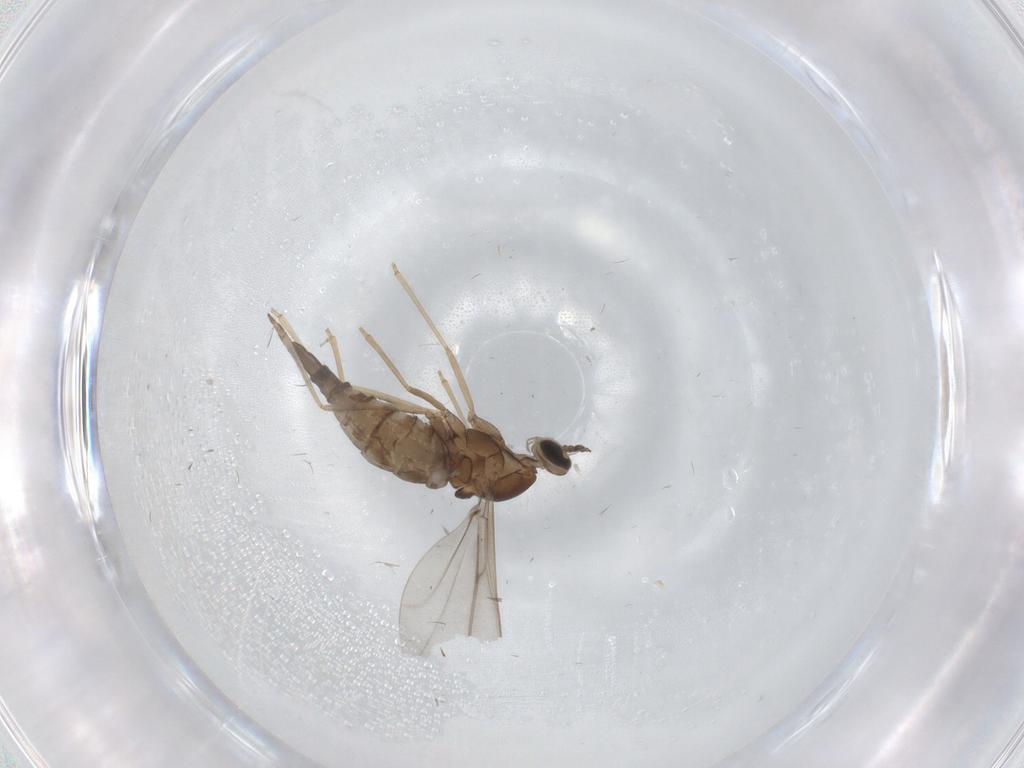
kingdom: Animalia
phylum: Arthropoda
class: Insecta
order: Diptera
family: Cecidomyiidae
